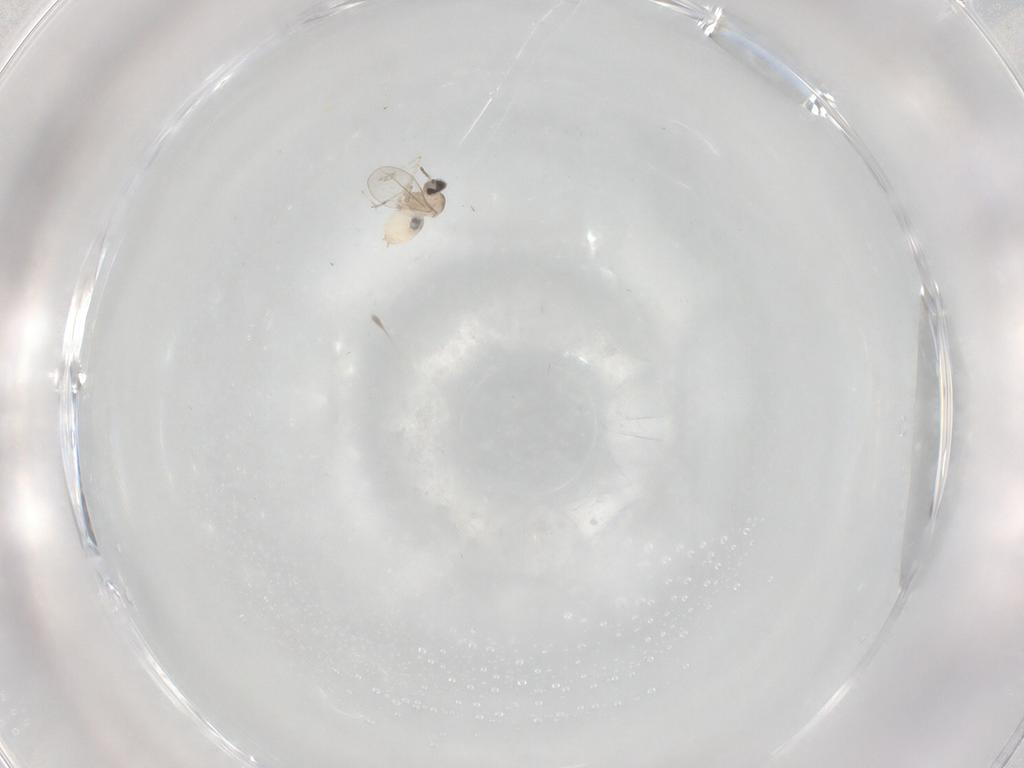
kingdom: Animalia
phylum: Arthropoda
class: Insecta
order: Diptera
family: Cecidomyiidae
